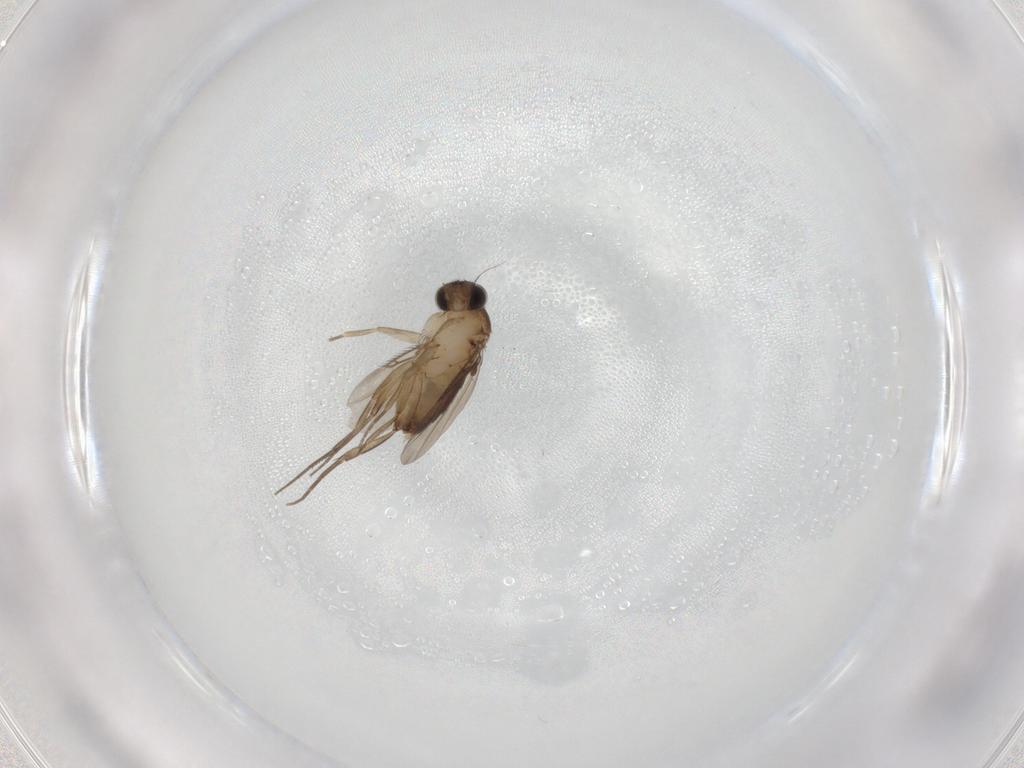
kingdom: Animalia
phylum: Arthropoda
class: Insecta
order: Diptera
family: Phoridae
